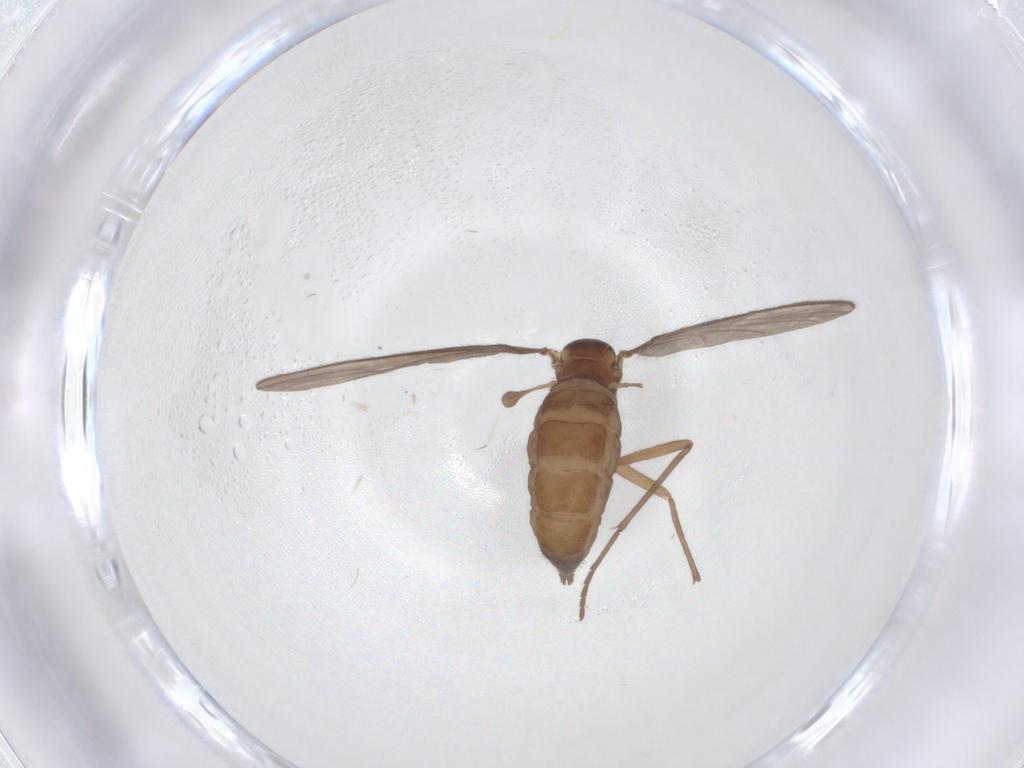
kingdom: Animalia
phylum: Arthropoda
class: Insecta
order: Diptera
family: Sciaridae
